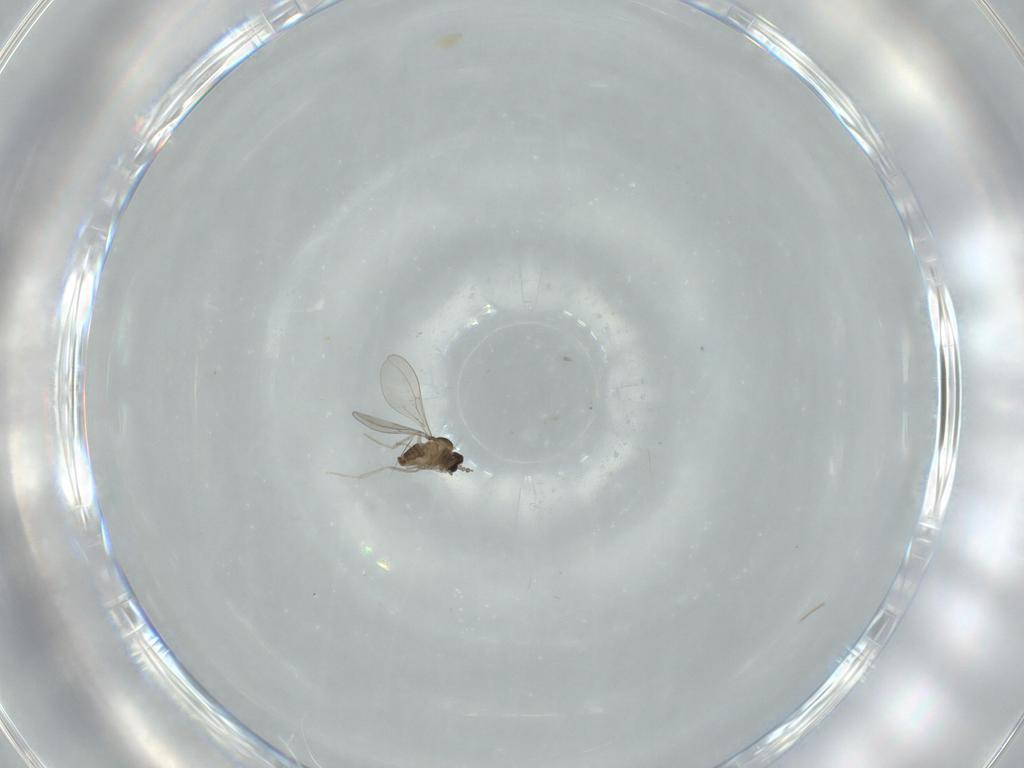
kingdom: Animalia
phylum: Arthropoda
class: Insecta
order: Diptera
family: Cecidomyiidae
